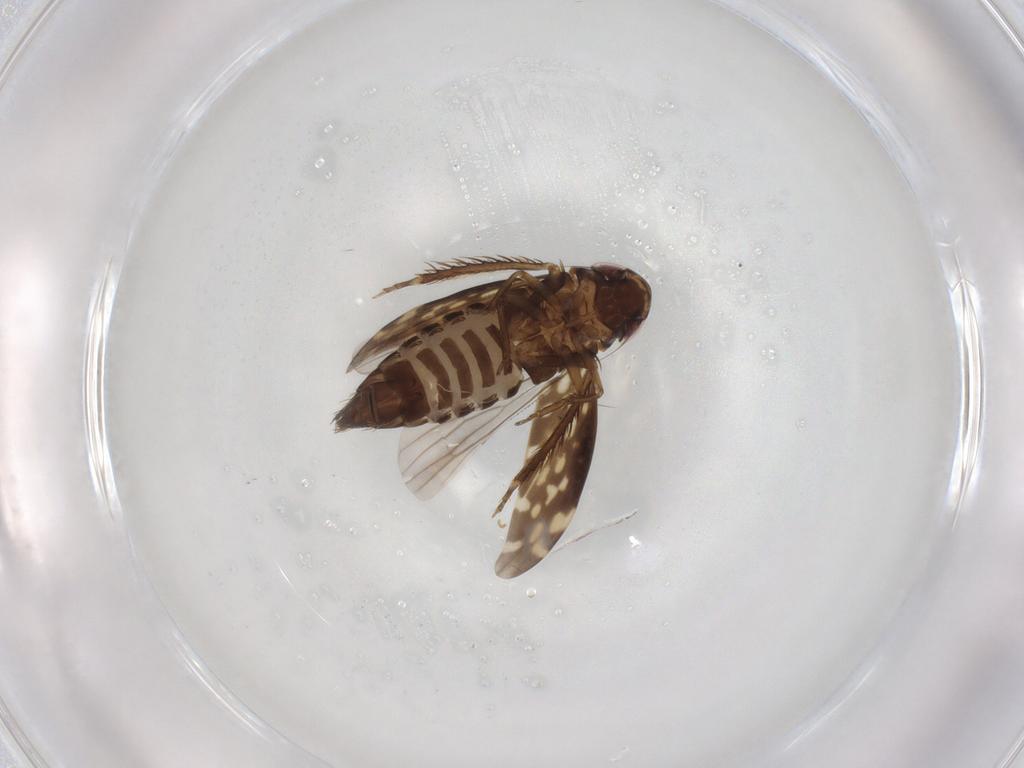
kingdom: Animalia
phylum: Arthropoda
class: Insecta
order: Hemiptera
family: Cicadellidae
